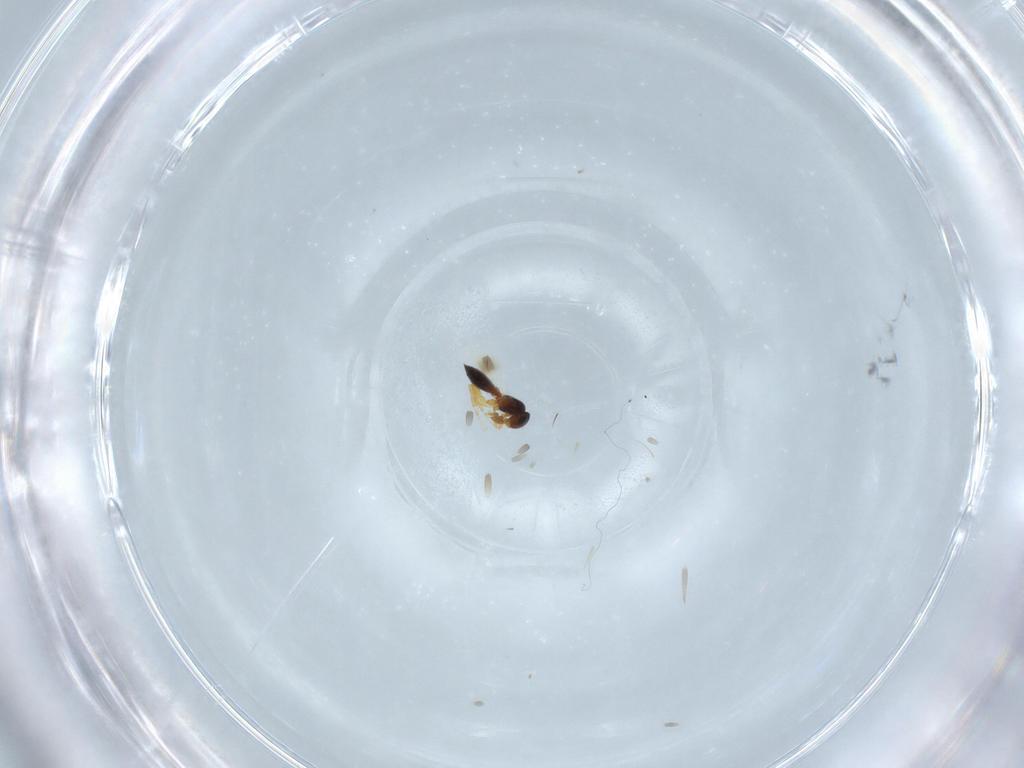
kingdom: Animalia
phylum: Arthropoda
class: Insecta
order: Hymenoptera
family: Platygastridae
